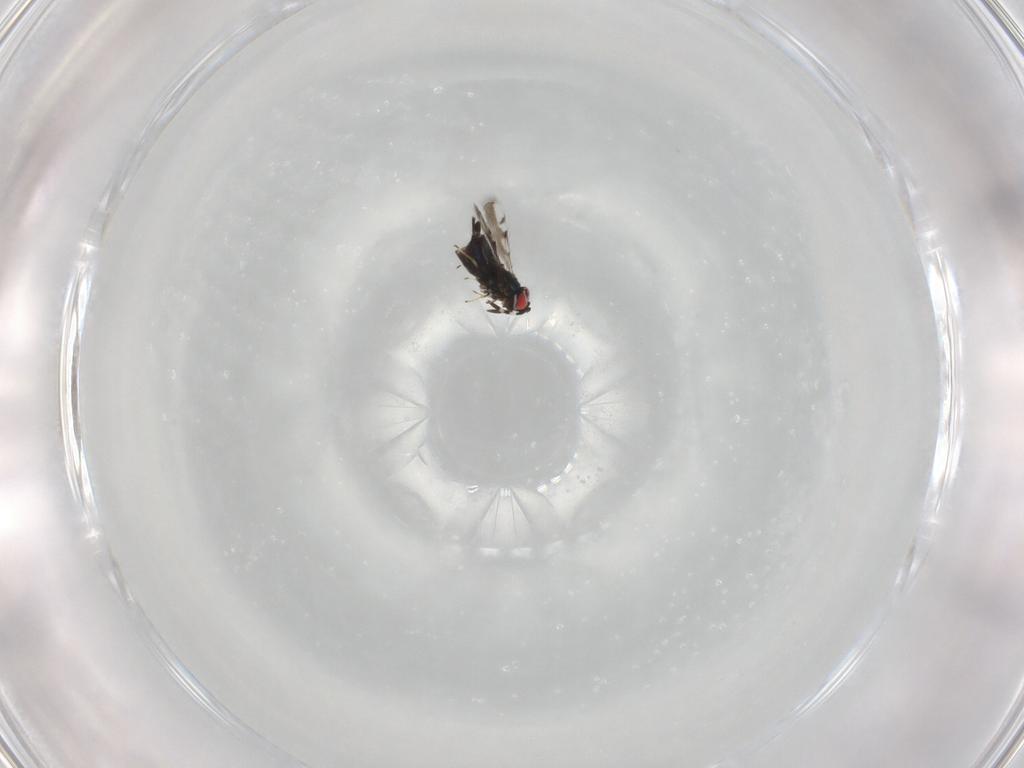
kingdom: Animalia
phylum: Arthropoda
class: Insecta
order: Hymenoptera
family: Azotidae
